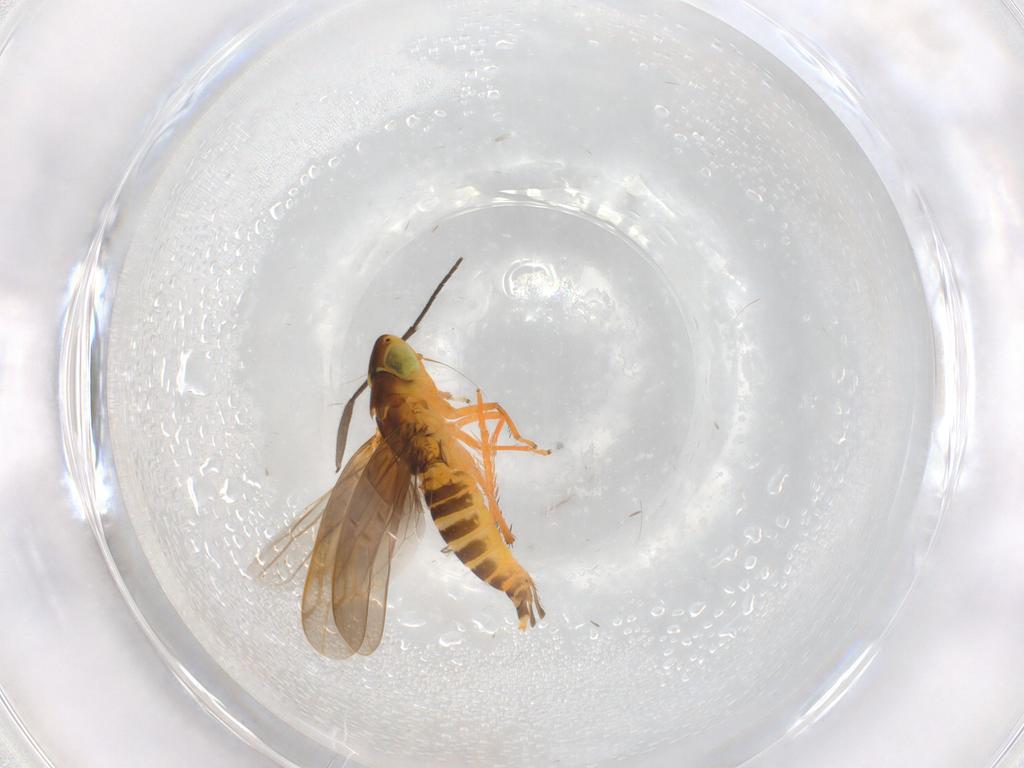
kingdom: Animalia
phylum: Arthropoda
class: Insecta
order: Hemiptera
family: Cicadellidae
